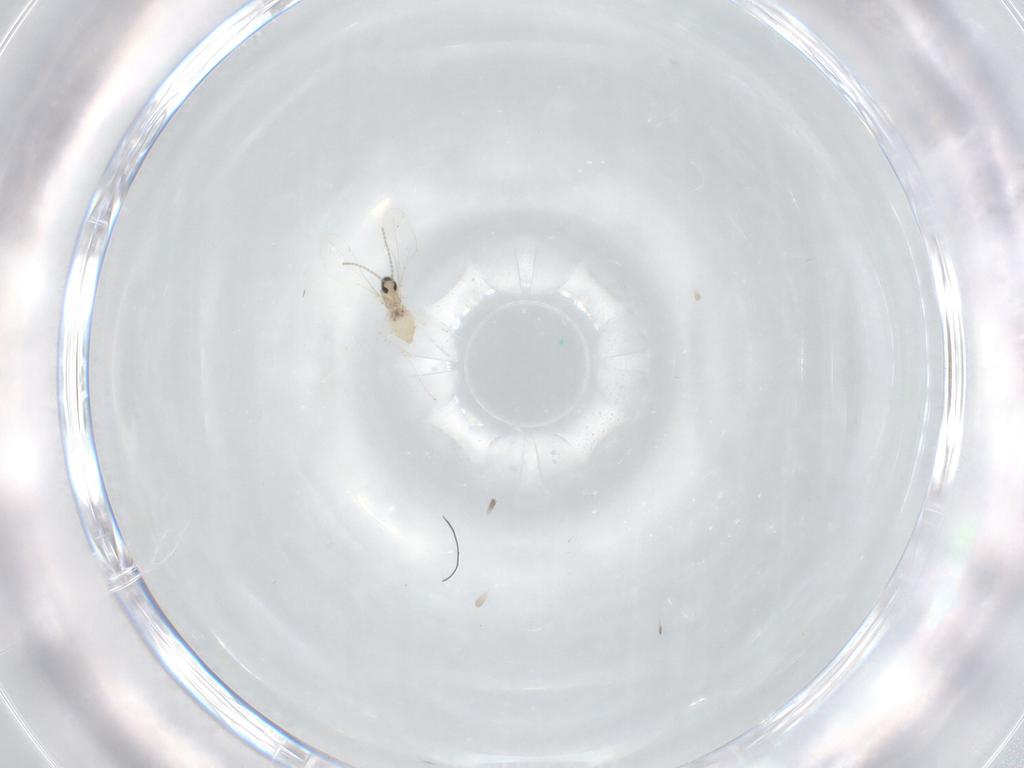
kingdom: Animalia
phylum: Arthropoda
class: Insecta
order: Diptera
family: Cecidomyiidae
